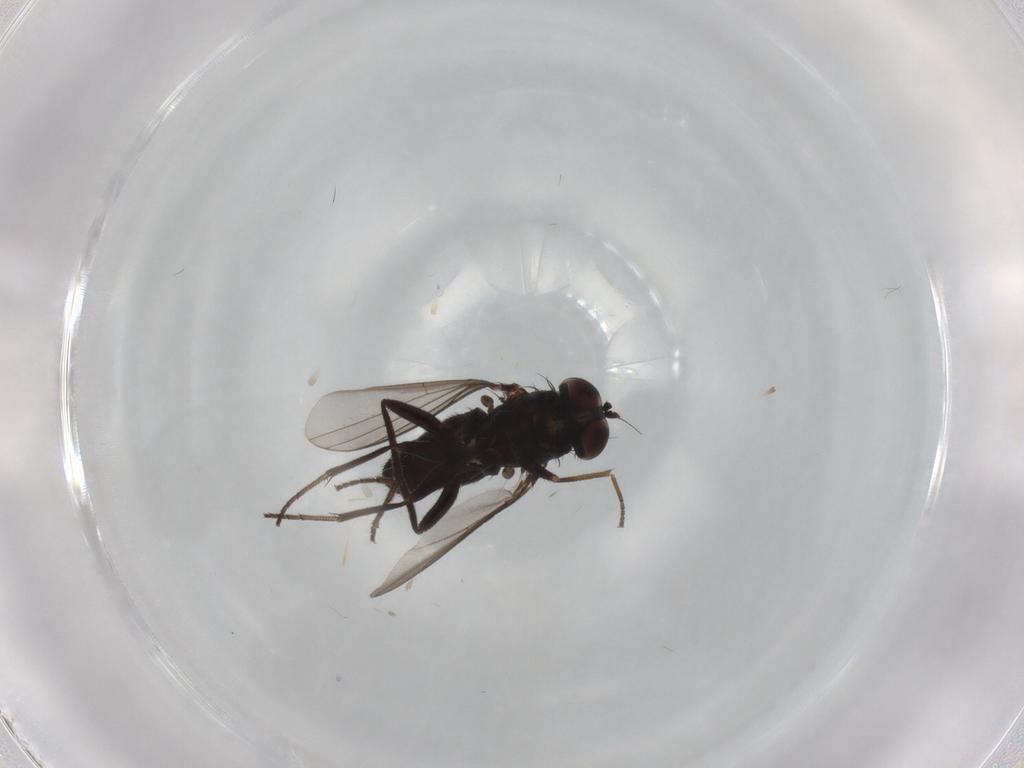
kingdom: Animalia
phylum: Arthropoda
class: Insecta
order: Diptera
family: Dolichopodidae
